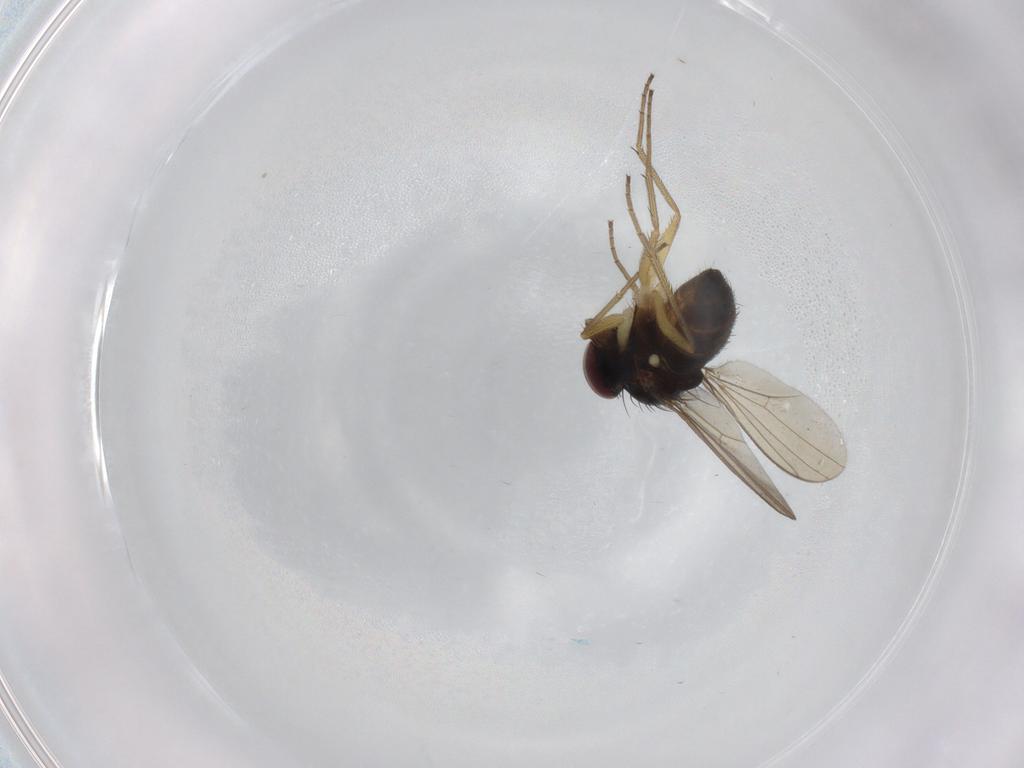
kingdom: Animalia
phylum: Arthropoda
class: Insecta
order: Diptera
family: Dolichopodidae
